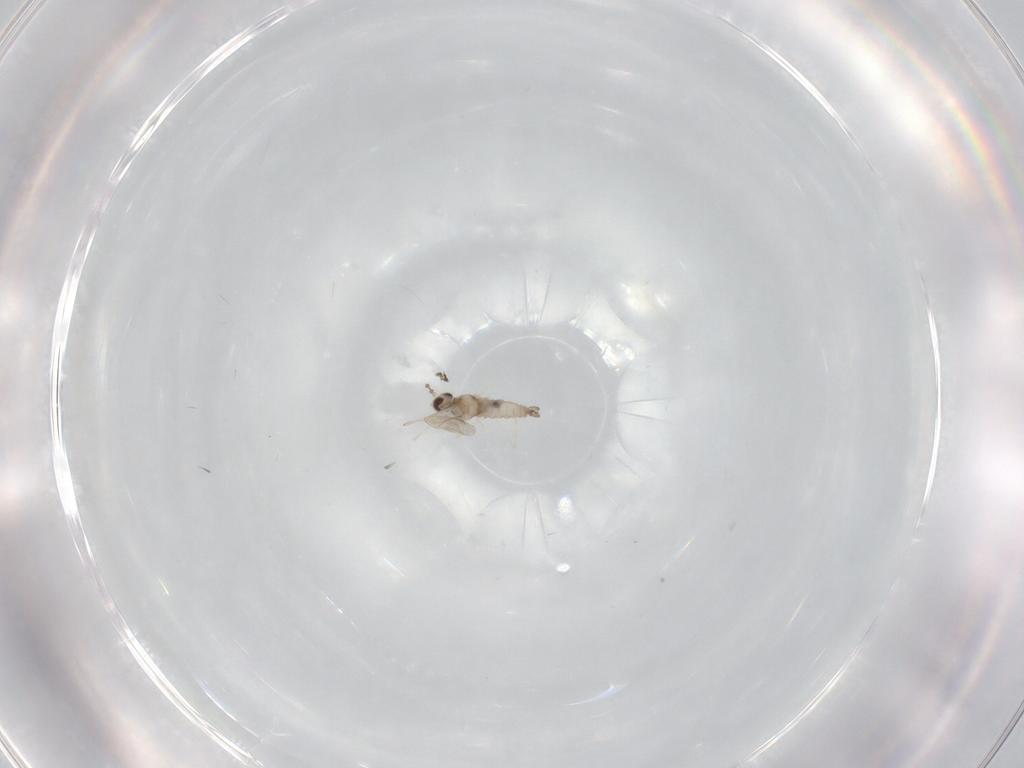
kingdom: Animalia
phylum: Arthropoda
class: Insecta
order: Diptera
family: Cecidomyiidae
